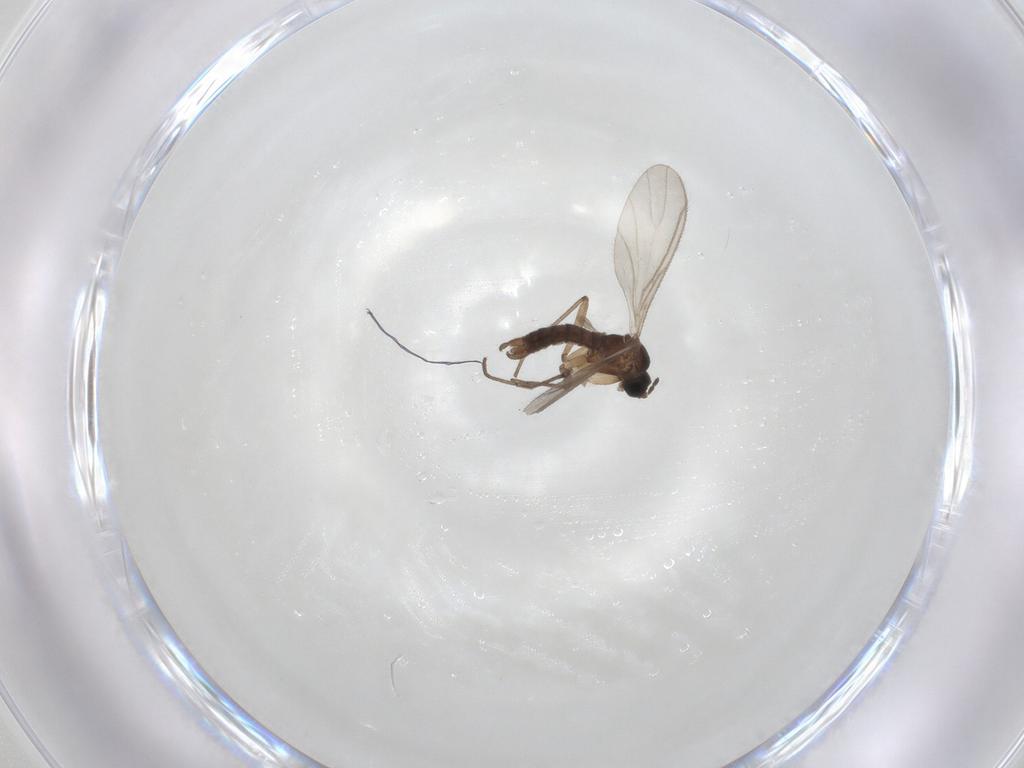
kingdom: Animalia
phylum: Arthropoda
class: Insecta
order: Diptera
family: Sciaridae
